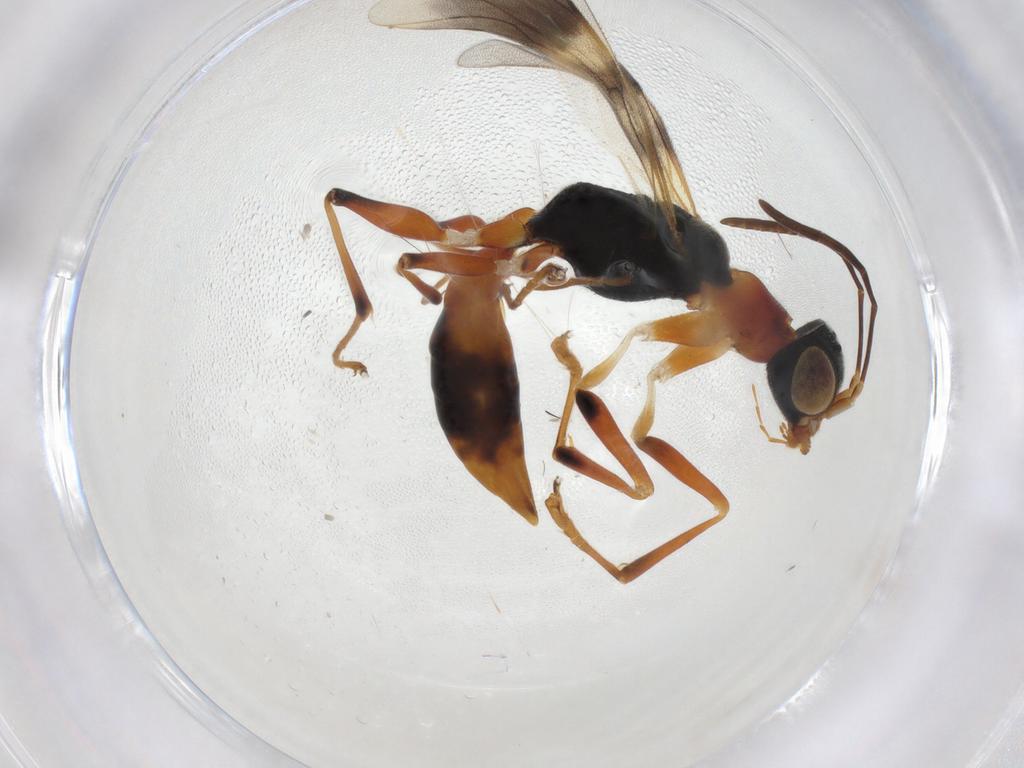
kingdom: Animalia
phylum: Arthropoda
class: Insecta
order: Hymenoptera
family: Dryinidae
